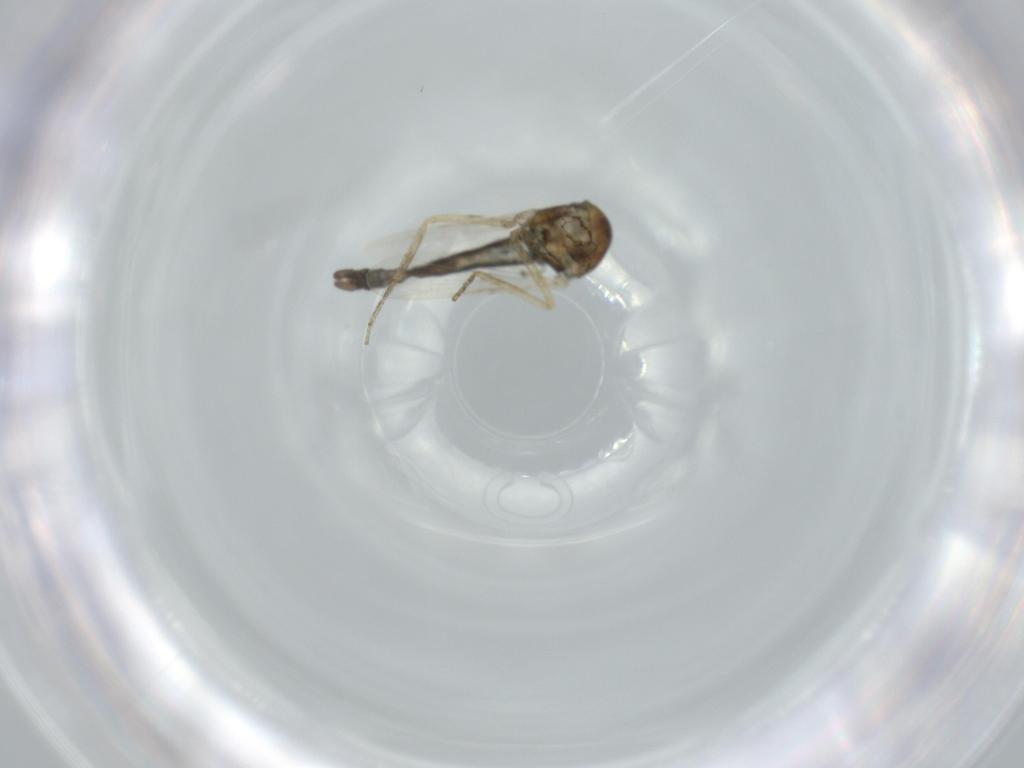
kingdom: Animalia
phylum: Arthropoda
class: Insecta
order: Diptera
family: Cecidomyiidae
